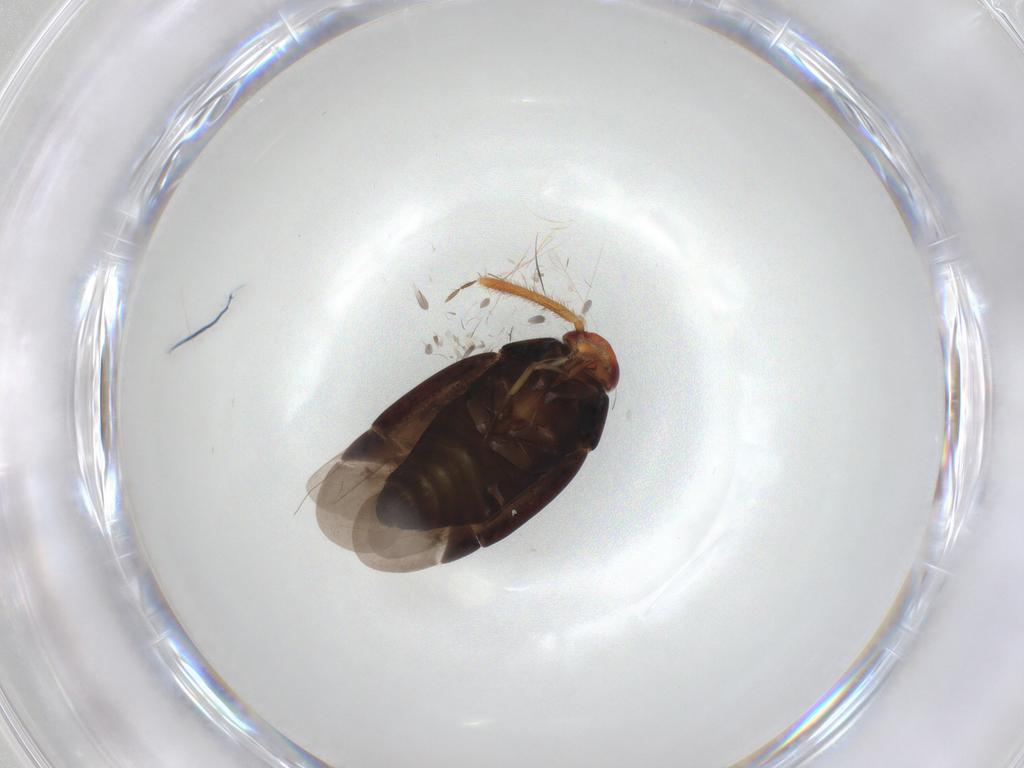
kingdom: Animalia
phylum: Arthropoda
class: Insecta
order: Hemiptera
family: Miridae
